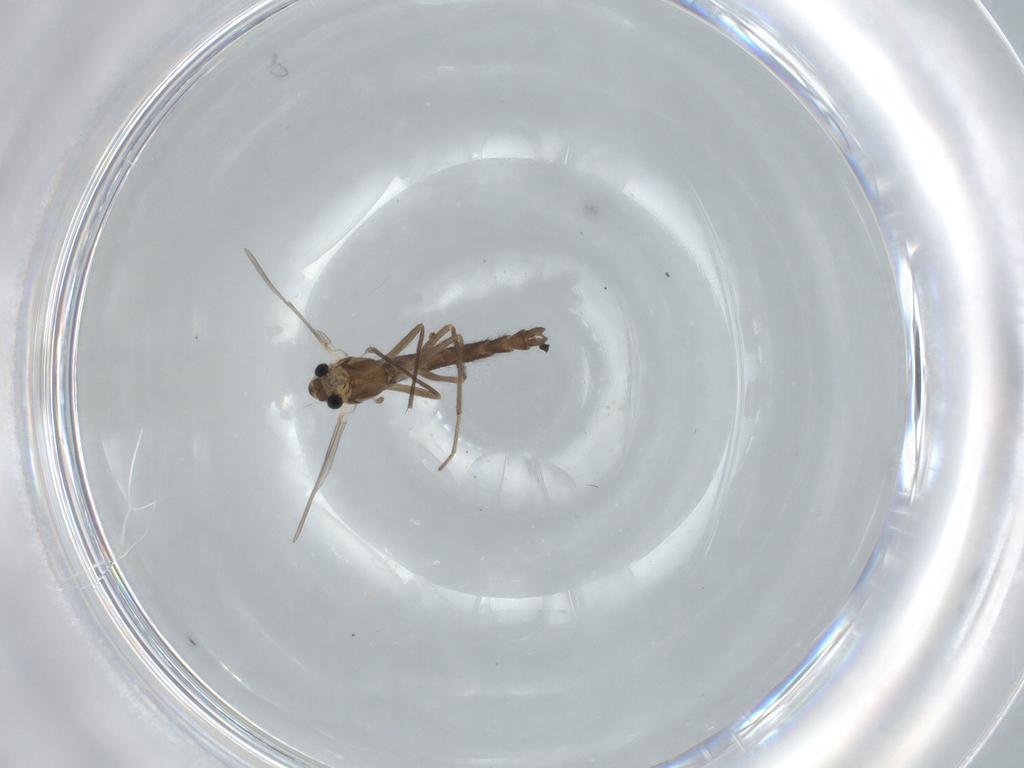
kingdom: Animalia
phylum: Arthropoda
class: Insecta
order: Diptera
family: Chironomidae
